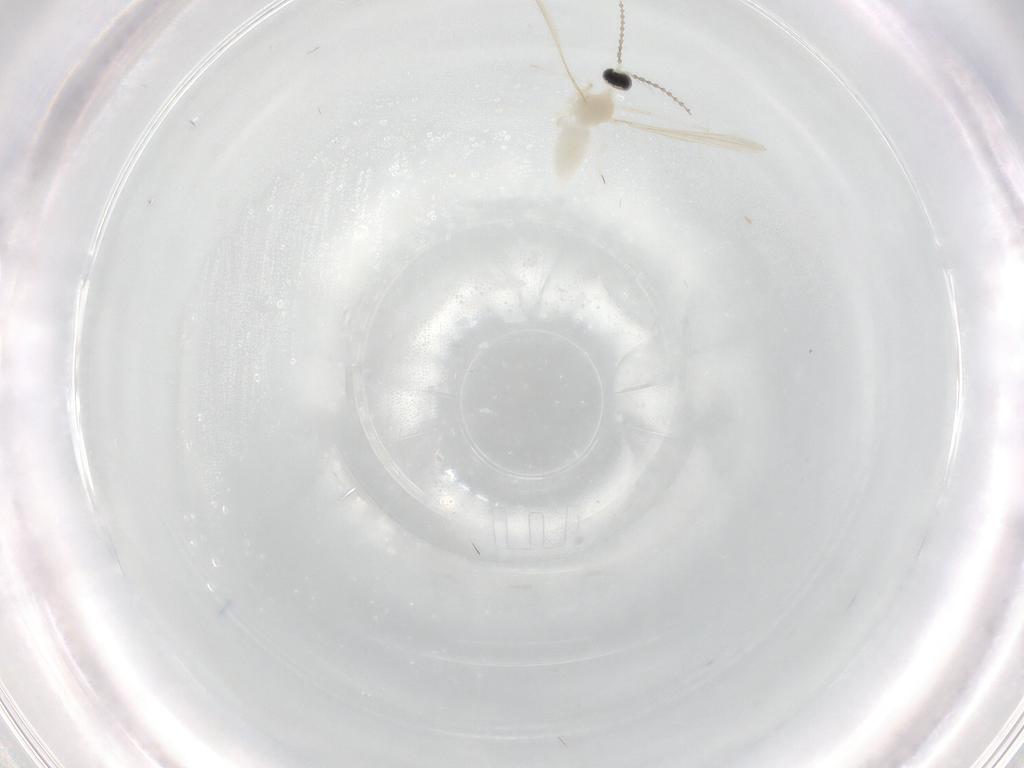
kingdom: Animalia
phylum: Arthropoda
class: Insecta
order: Diptera
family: Cecidomyiidae
